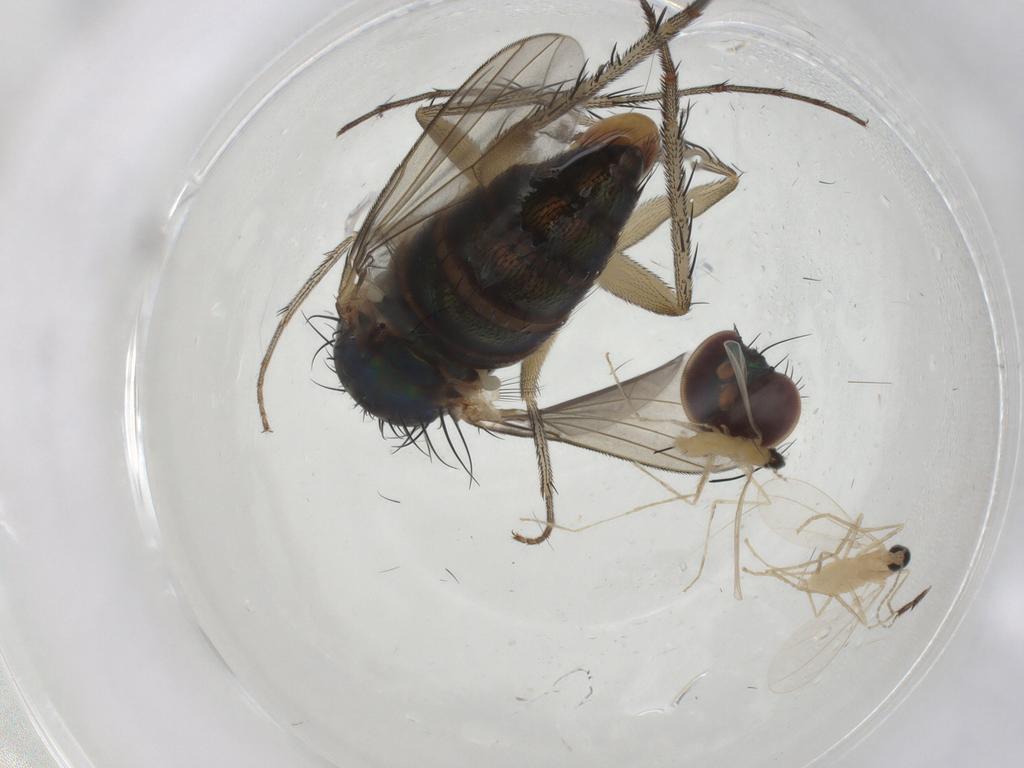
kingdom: Animalia
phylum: Arthropoda
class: Insecta
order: Diptera
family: Dolichopodidae
